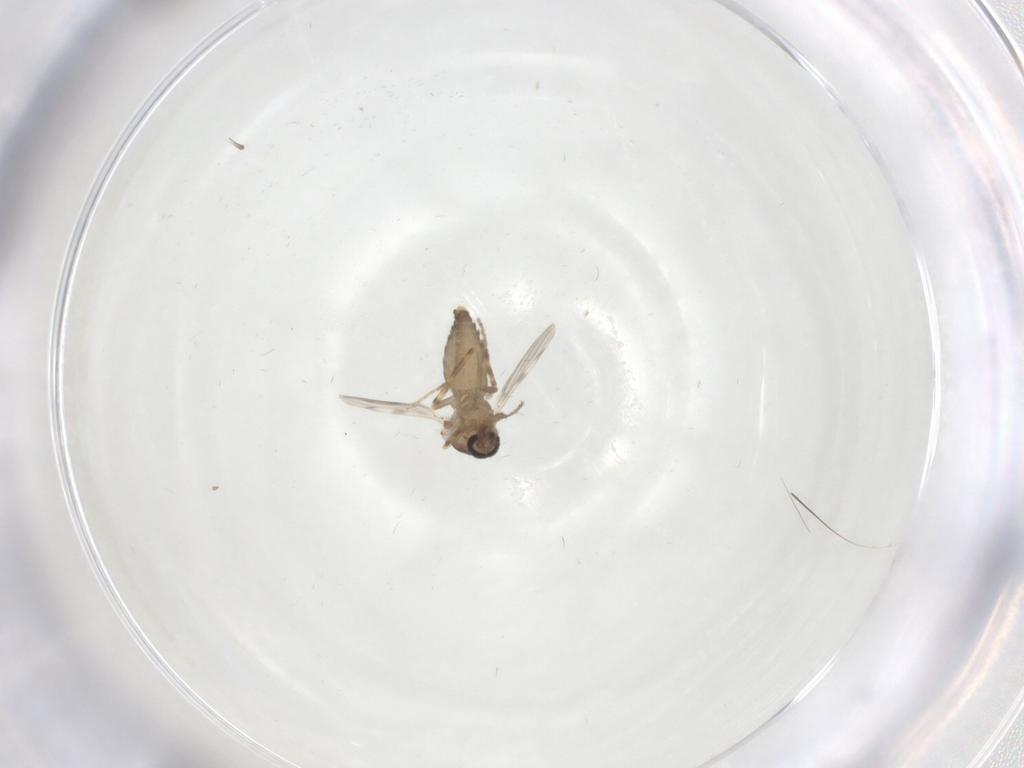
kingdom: Animalia
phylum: Arthropoda
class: Insecta
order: Diptera
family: Ceratopogonidae
